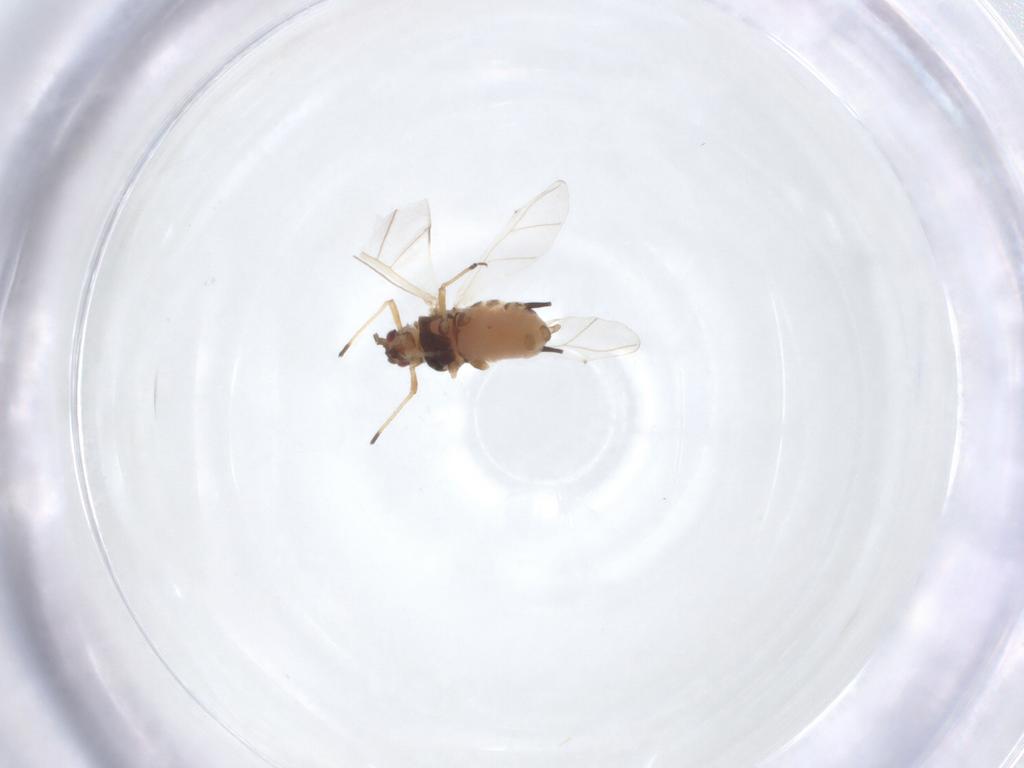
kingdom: Animalia
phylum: Arthropoda
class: Insecta
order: Hemiptera
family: Aphididae
